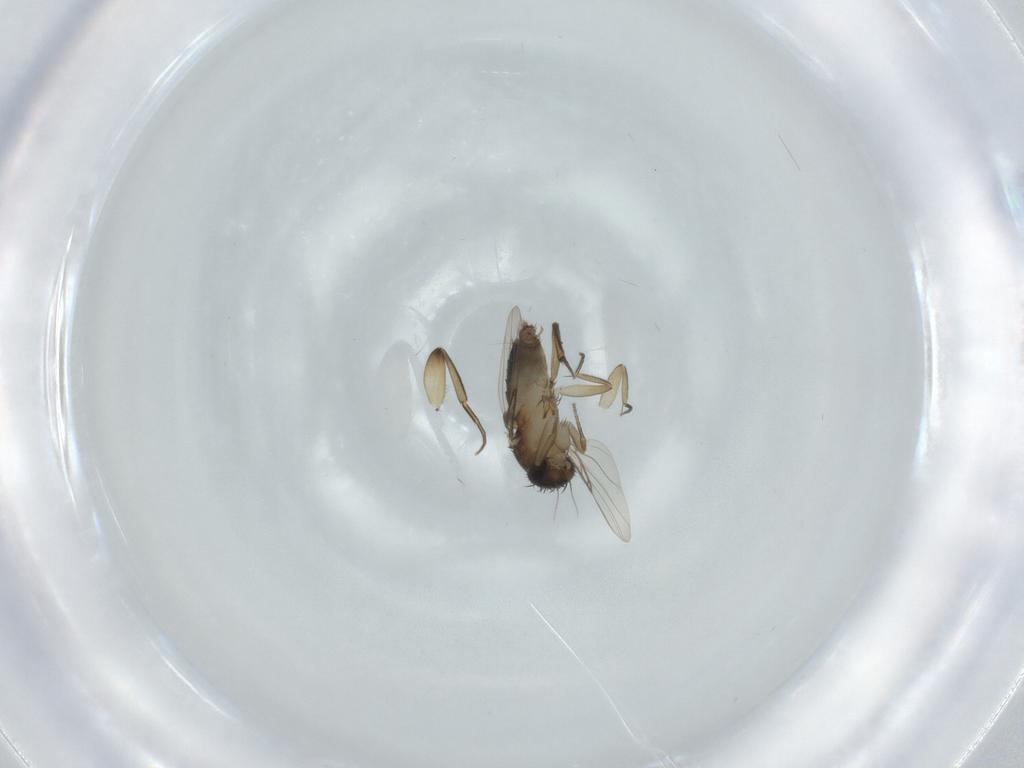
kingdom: Animalia
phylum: Arthropoda
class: Insecta
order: Diptera
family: Phoridae
